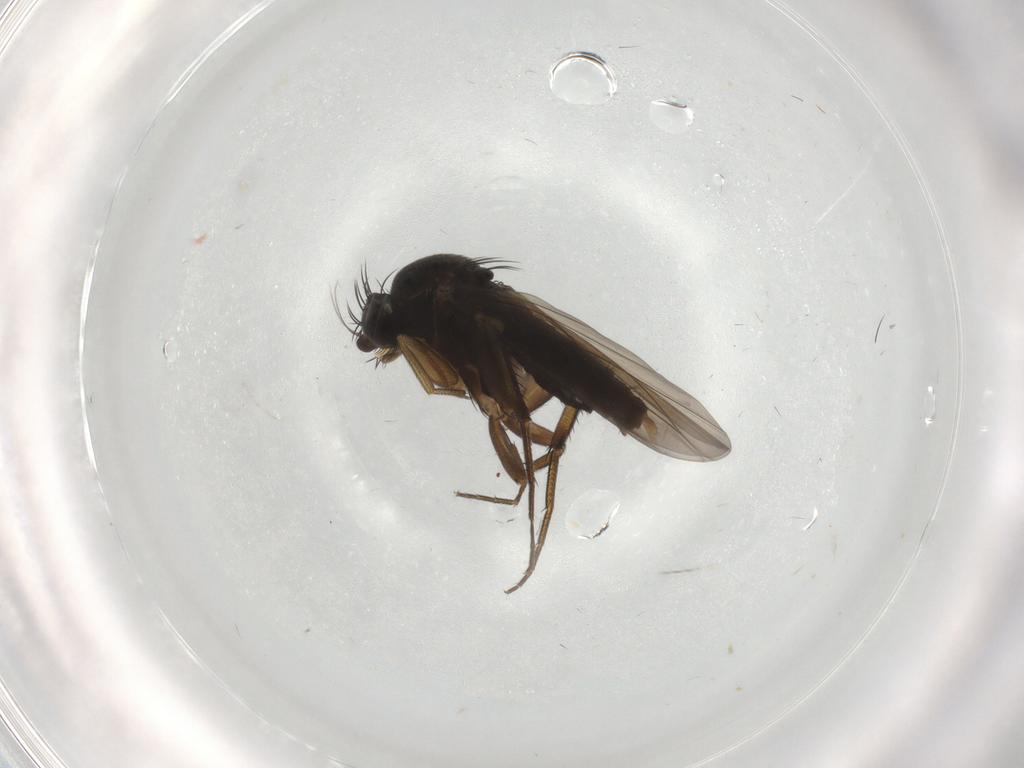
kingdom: Animalia
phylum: Arthropoda
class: Insecta
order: Diptera
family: Phoridae
